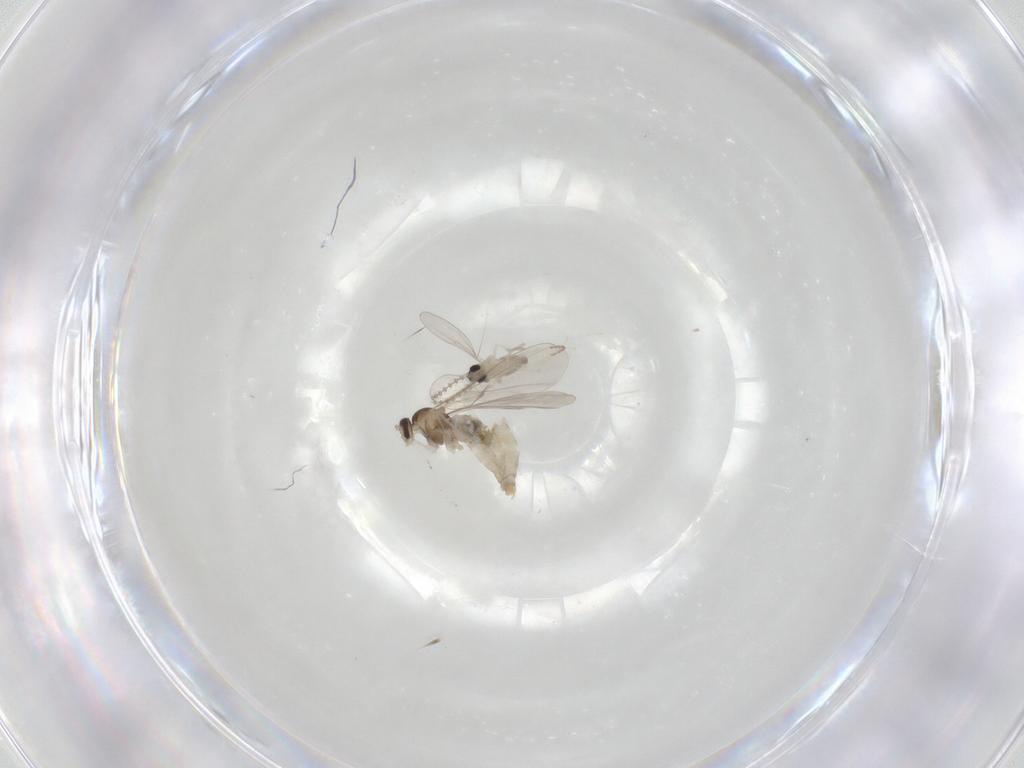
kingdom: Animalia
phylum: Arthropoda
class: Insecta
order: Diptera
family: Cecidomyiidae
